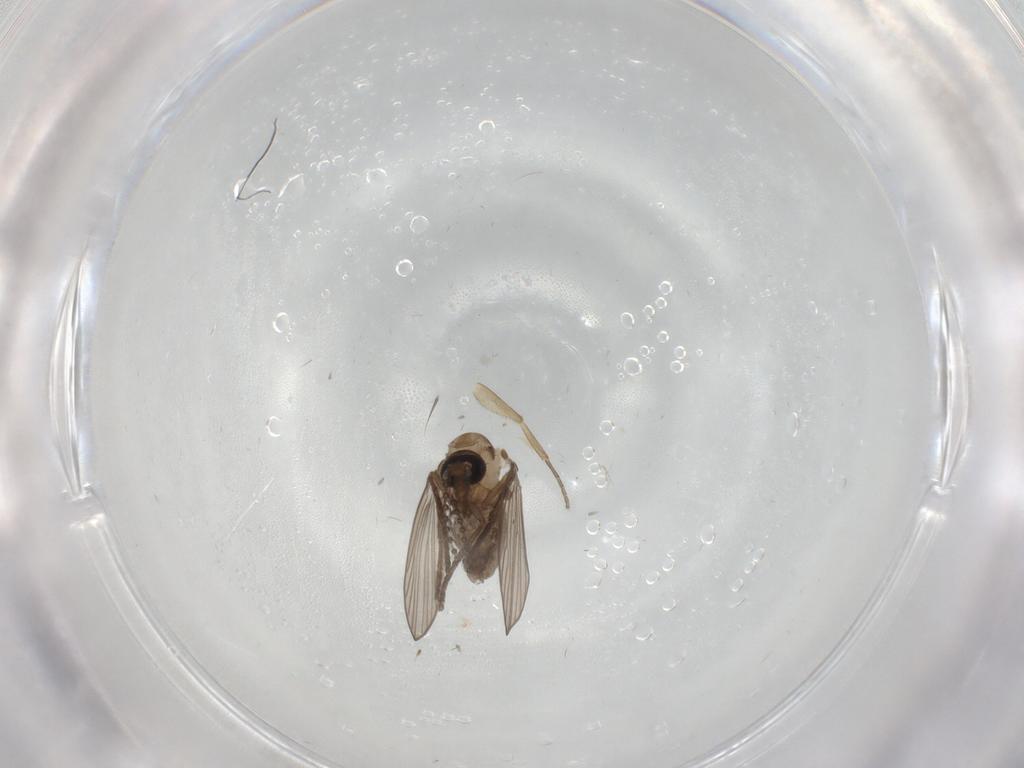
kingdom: Animalia
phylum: Arthropoda
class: Insecta
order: Diptera
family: Psychodidae
